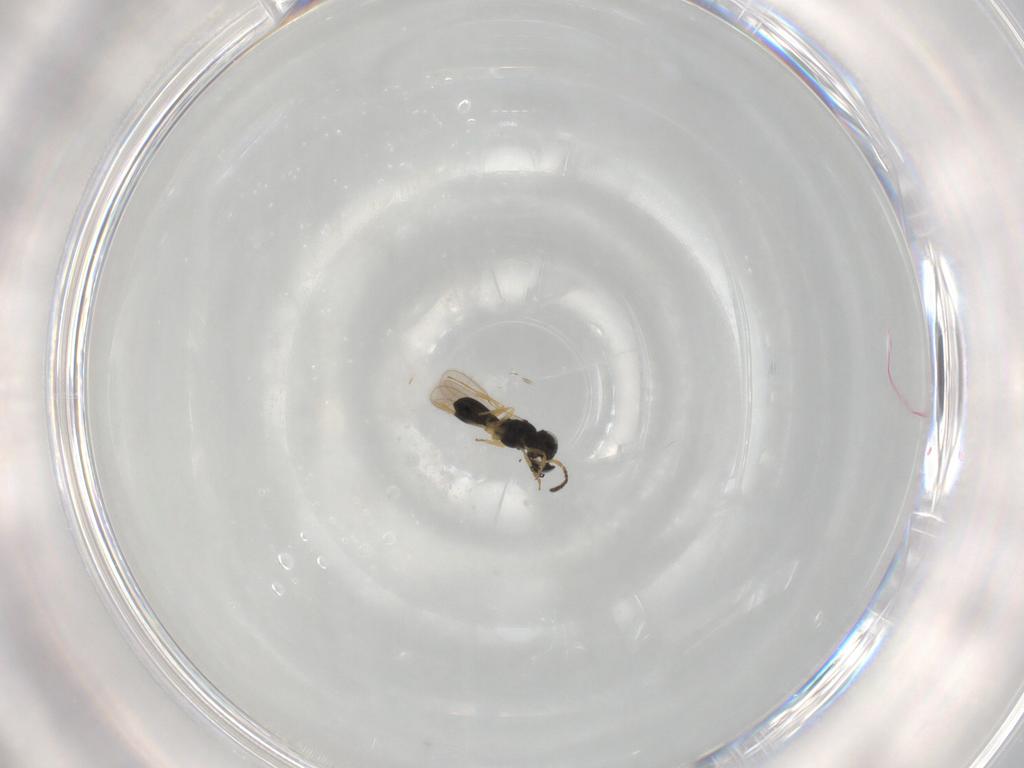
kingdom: Animalia
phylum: Arthropoda
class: Insecta
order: Hymenoptera
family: Scelionidae
